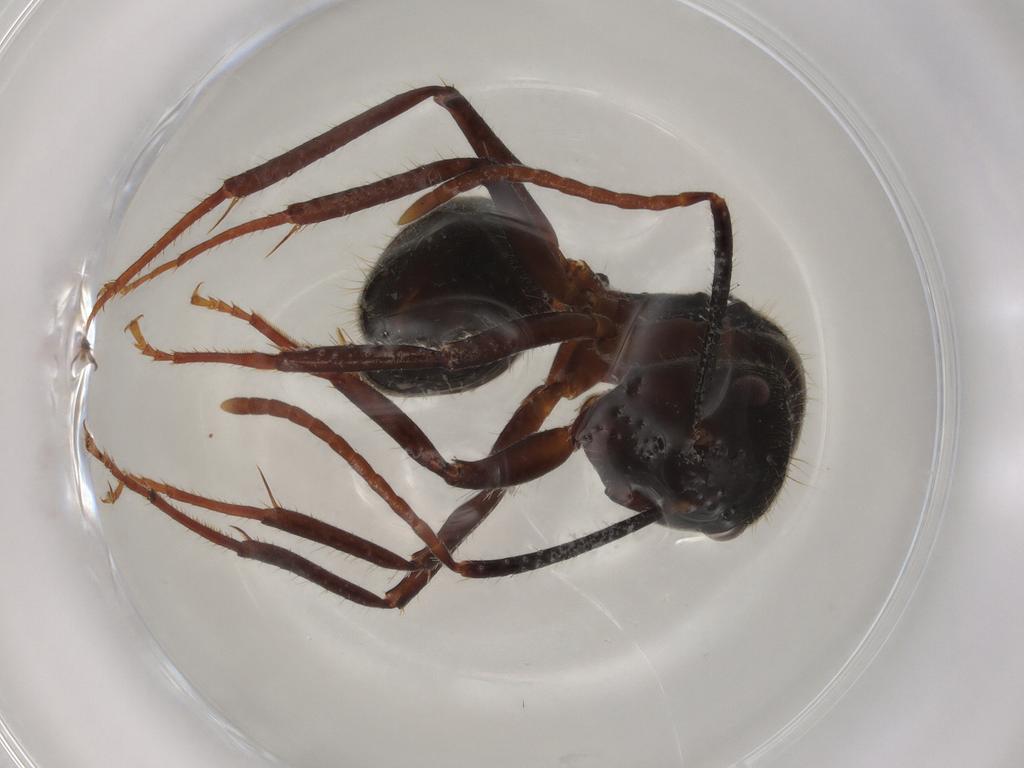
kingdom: Animalia
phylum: Arthropoda
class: Insecta
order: Hymenoptera
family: Formicidae
